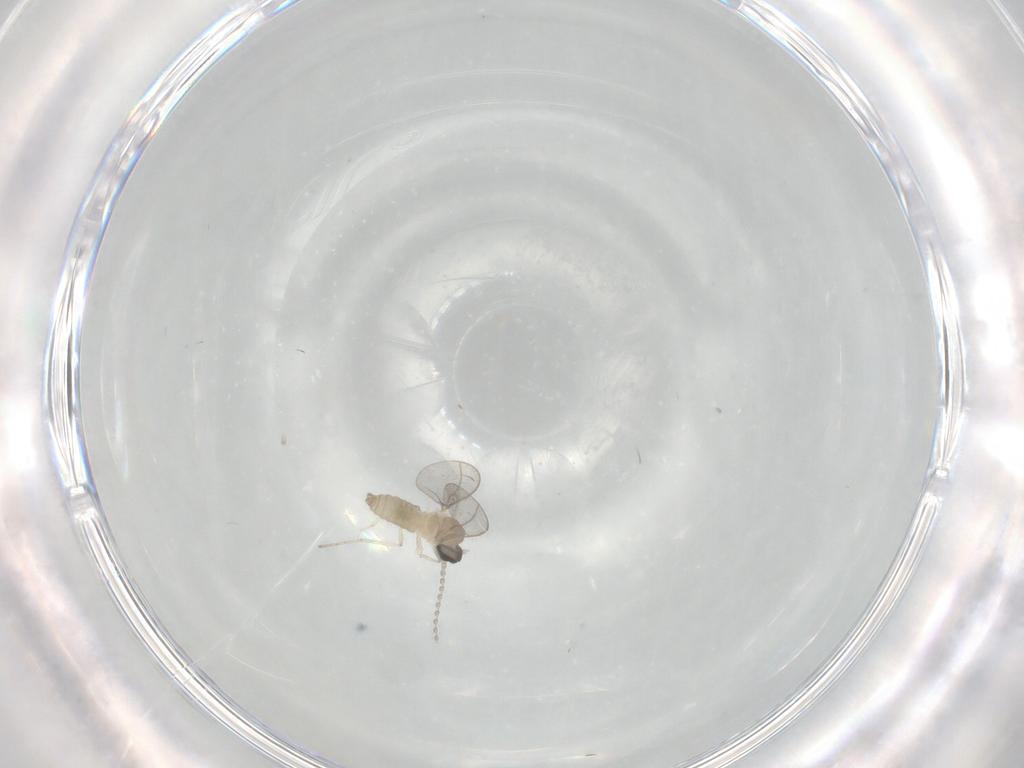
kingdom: Animalia
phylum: Arthropoda
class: Insecta
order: Diptera
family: Cecidomyiidae
